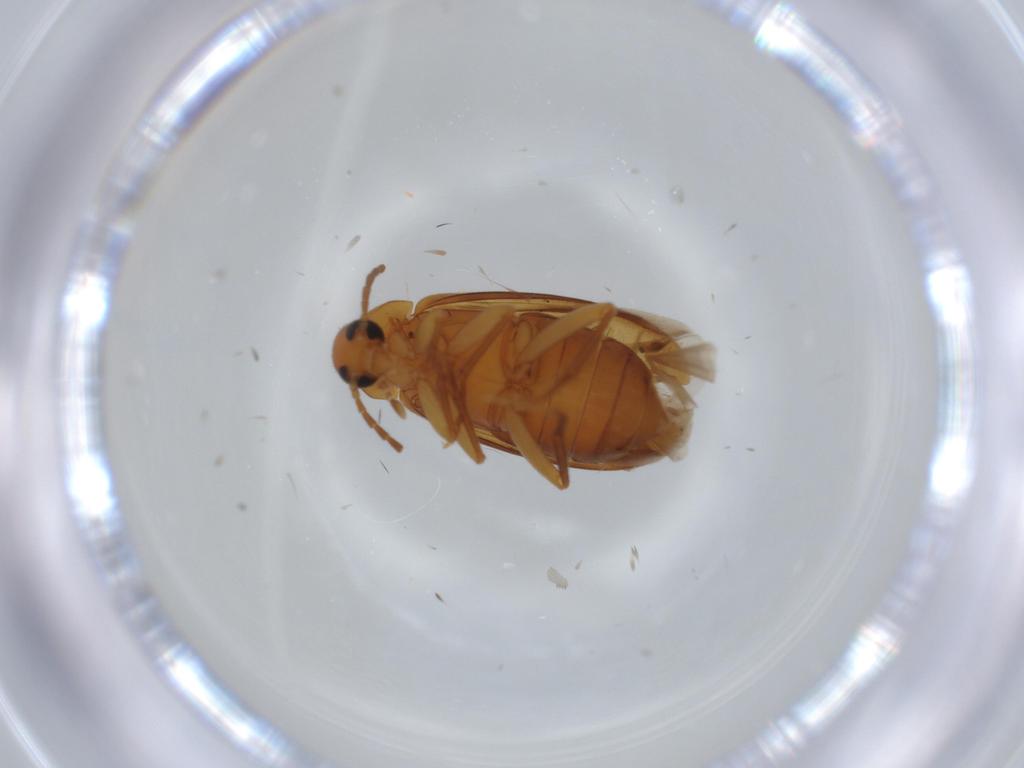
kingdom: Animalia
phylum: Arthropoda
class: Insecta
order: Coleoptera
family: Scraptiidae
